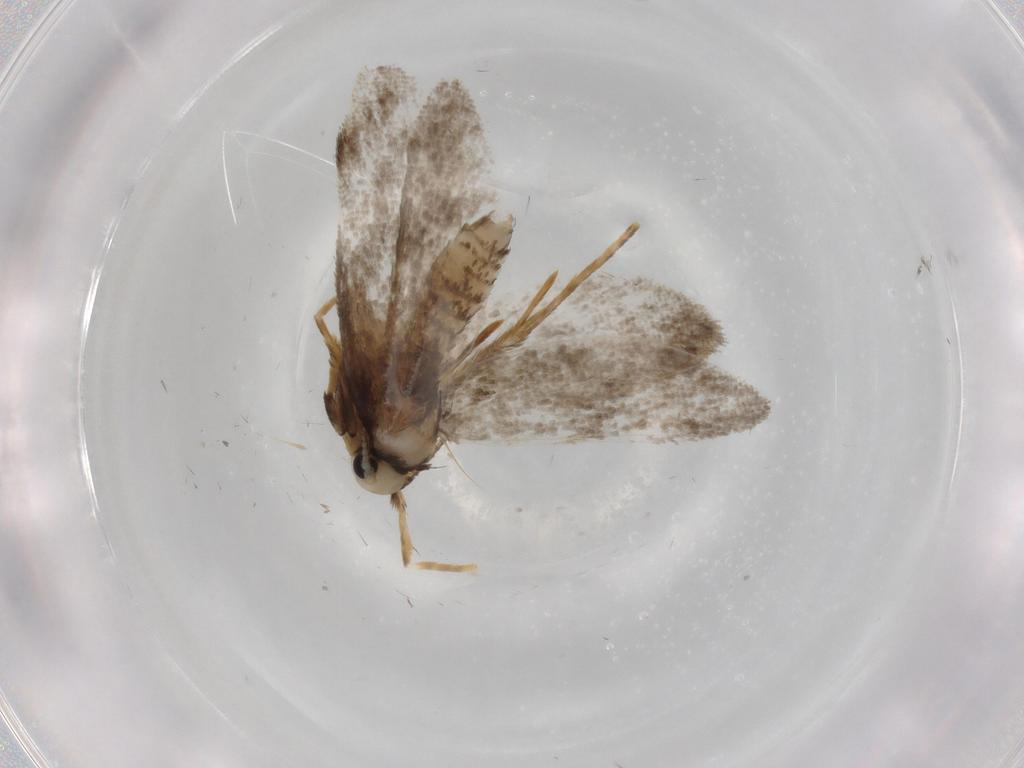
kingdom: Animalia
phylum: Arthropoda
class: Insecta
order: Lepidoptera
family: Psychidae
